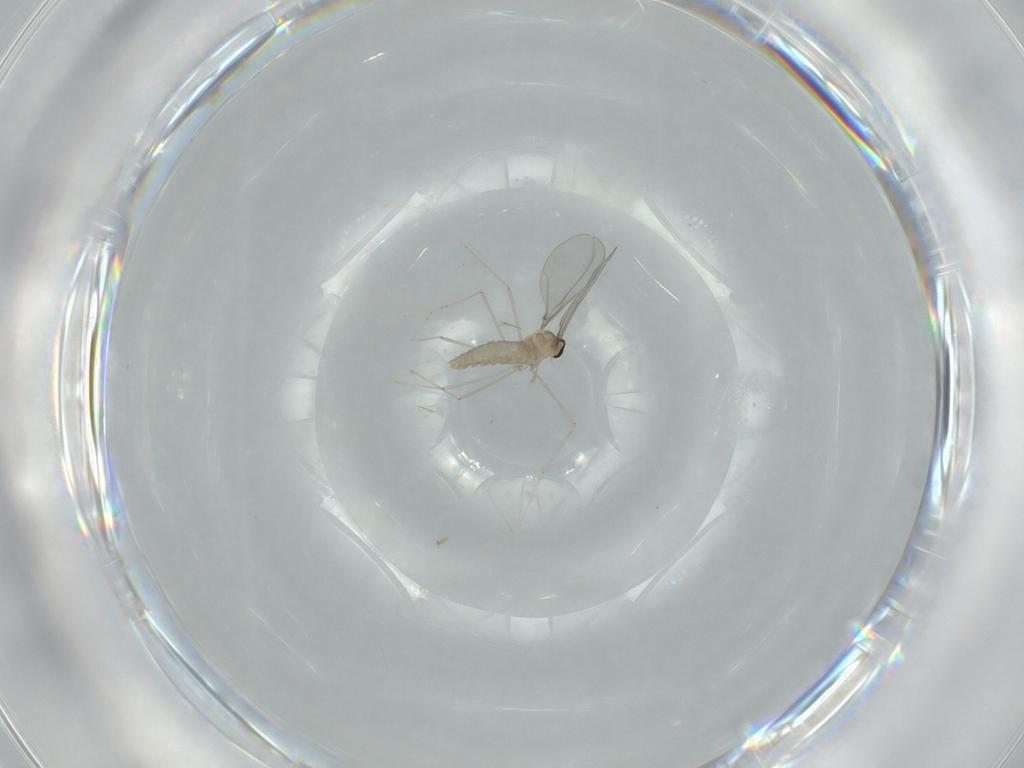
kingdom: Animalia
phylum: Arthropoda
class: Insecta
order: Diptera
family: Cecidomyiidae
